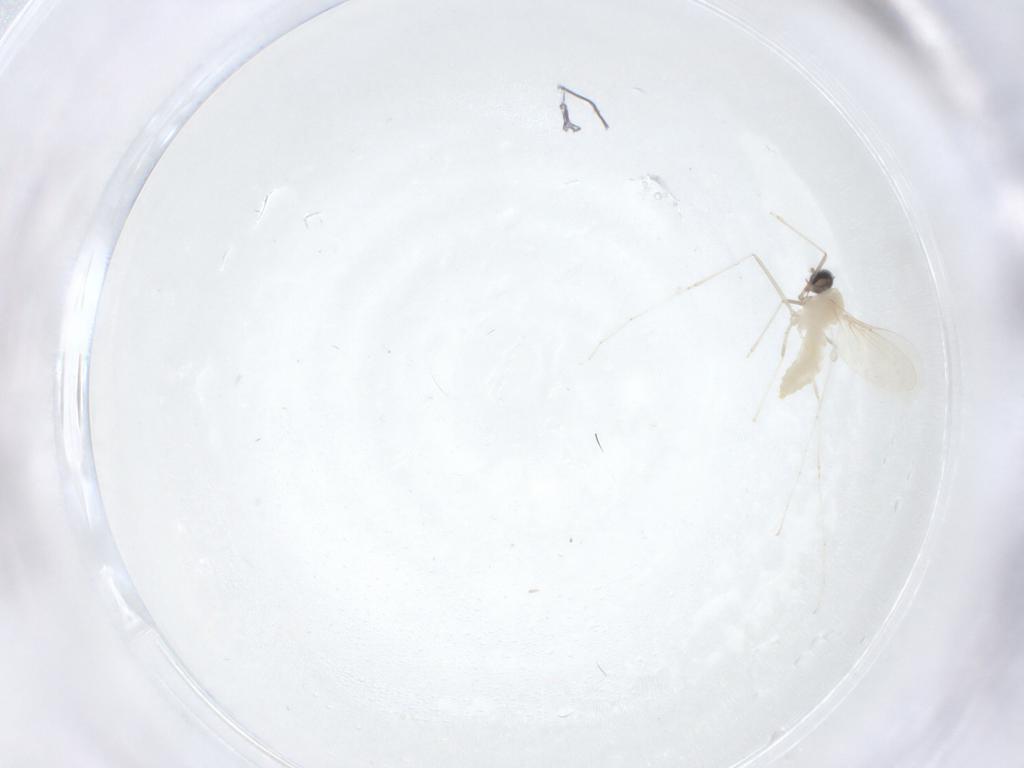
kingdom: Animalia
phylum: Arthropoda
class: Insecta
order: Diptera
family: Cecidomyiidae
